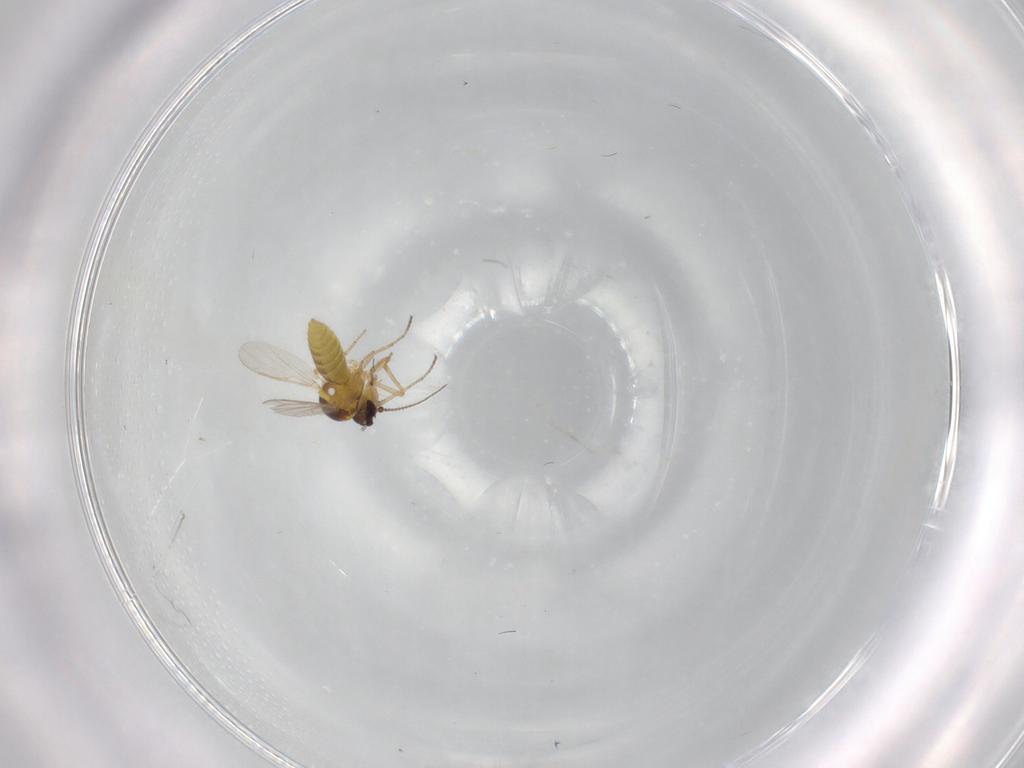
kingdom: Animalia
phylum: Arthropoda
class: Insecta
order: Diptera
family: Ceratopogonidae
